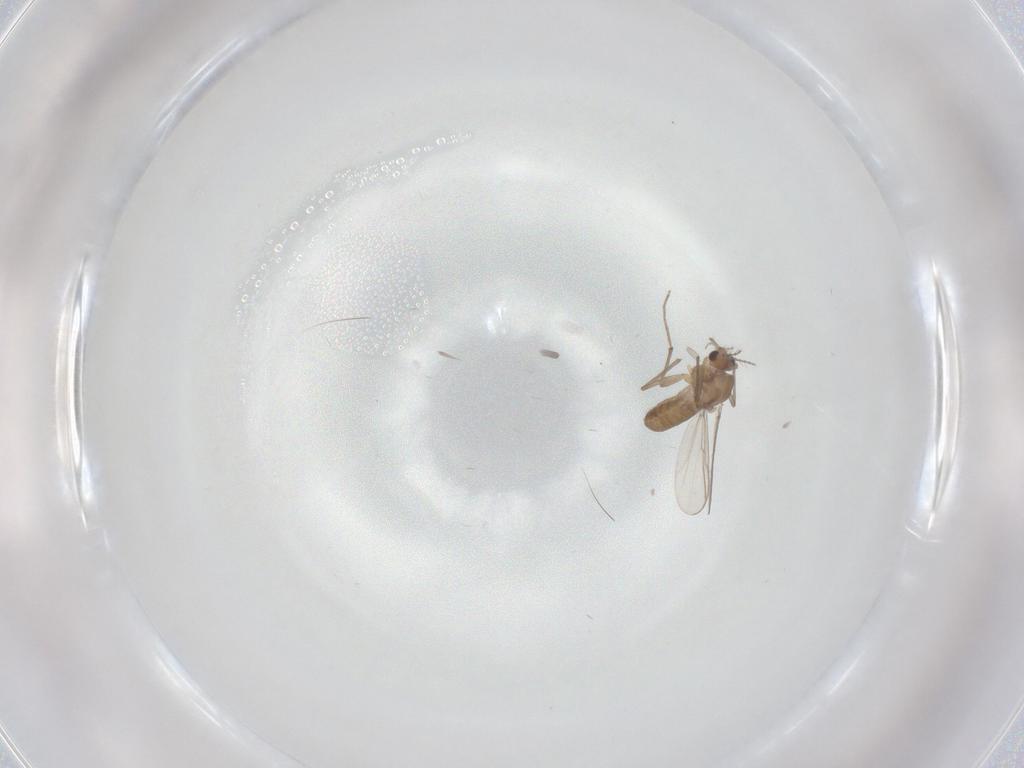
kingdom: Animalia
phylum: Arthropoda
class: Insecta
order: Diptera
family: Chironomidae
